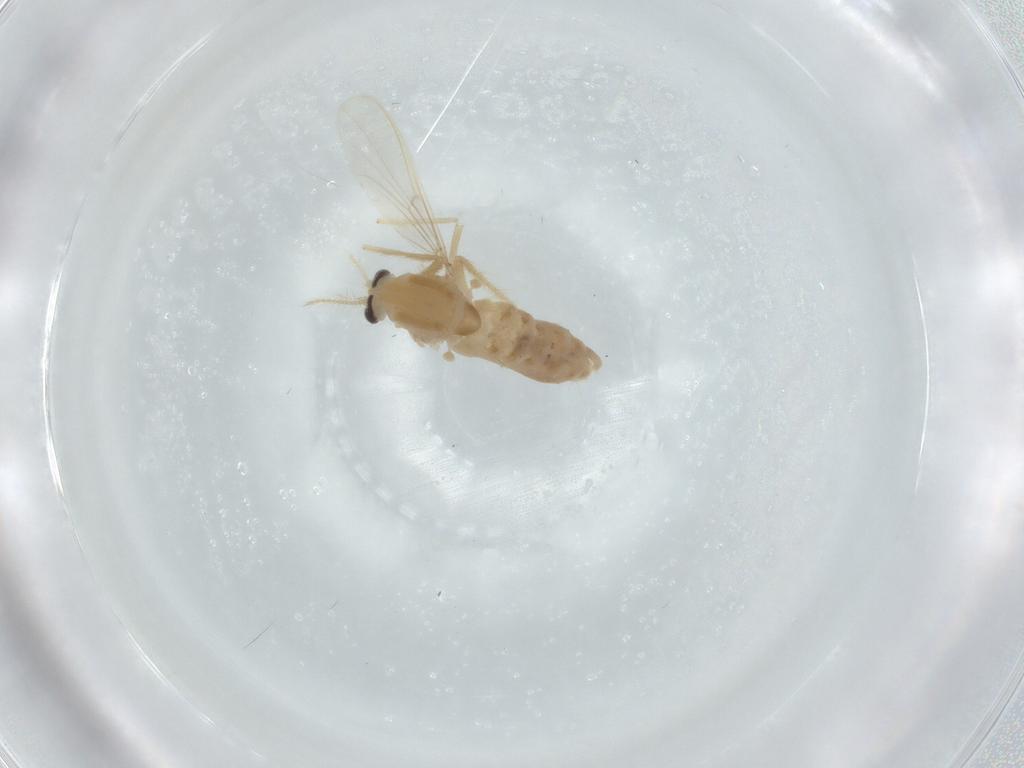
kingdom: Animalia
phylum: Arthropoda
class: Insecta
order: Diptera
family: Chironomidae
